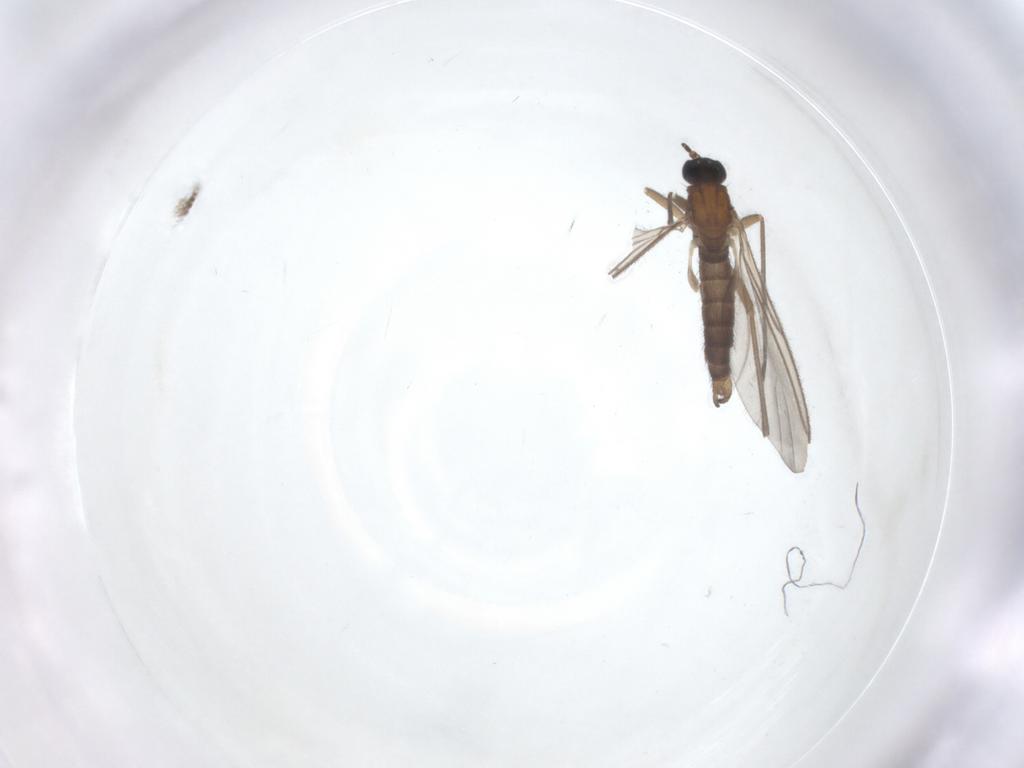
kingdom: Animalia
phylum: Arthropoda
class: Insecta
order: Diptera
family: Sciaridae
